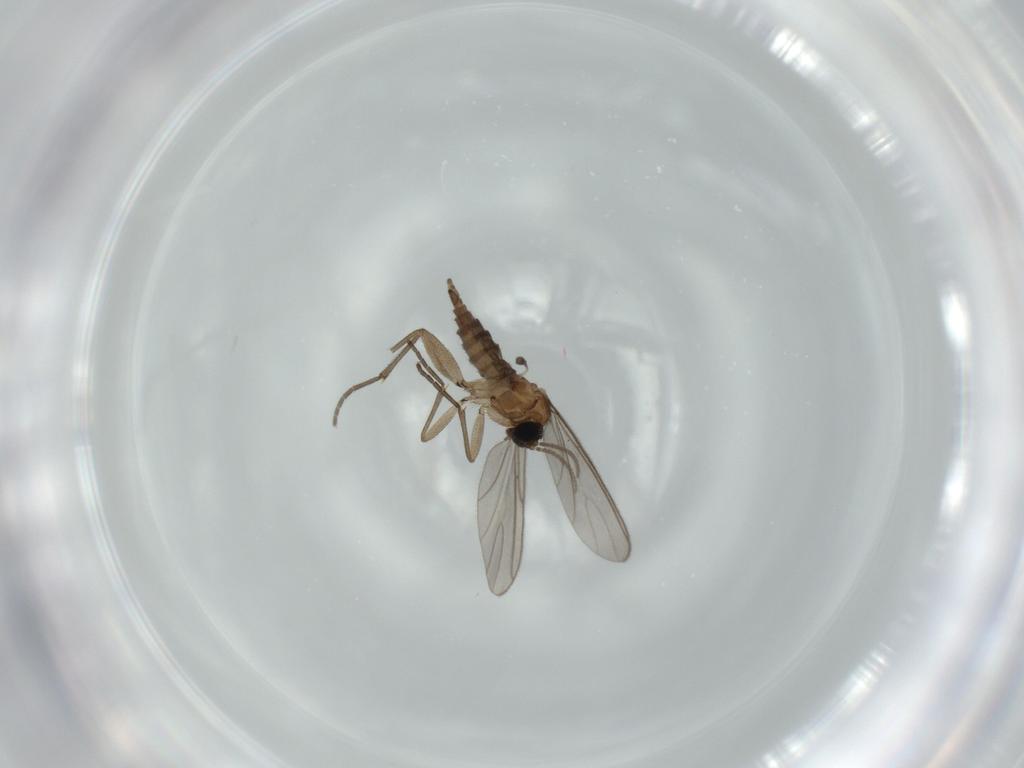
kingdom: Animalia
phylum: Arthropoda
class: Insecta
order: Diptera
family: Sciaridae
